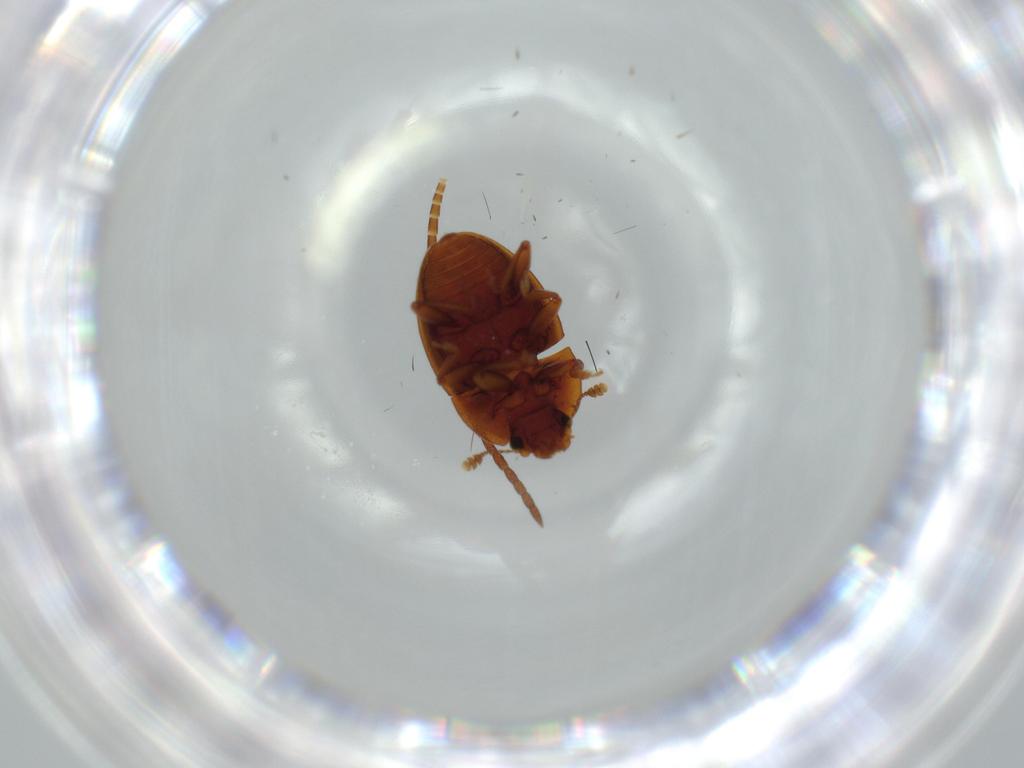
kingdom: Animalia
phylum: Arthropoda
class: Insecta
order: Coleoptera
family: Nitidulidae
